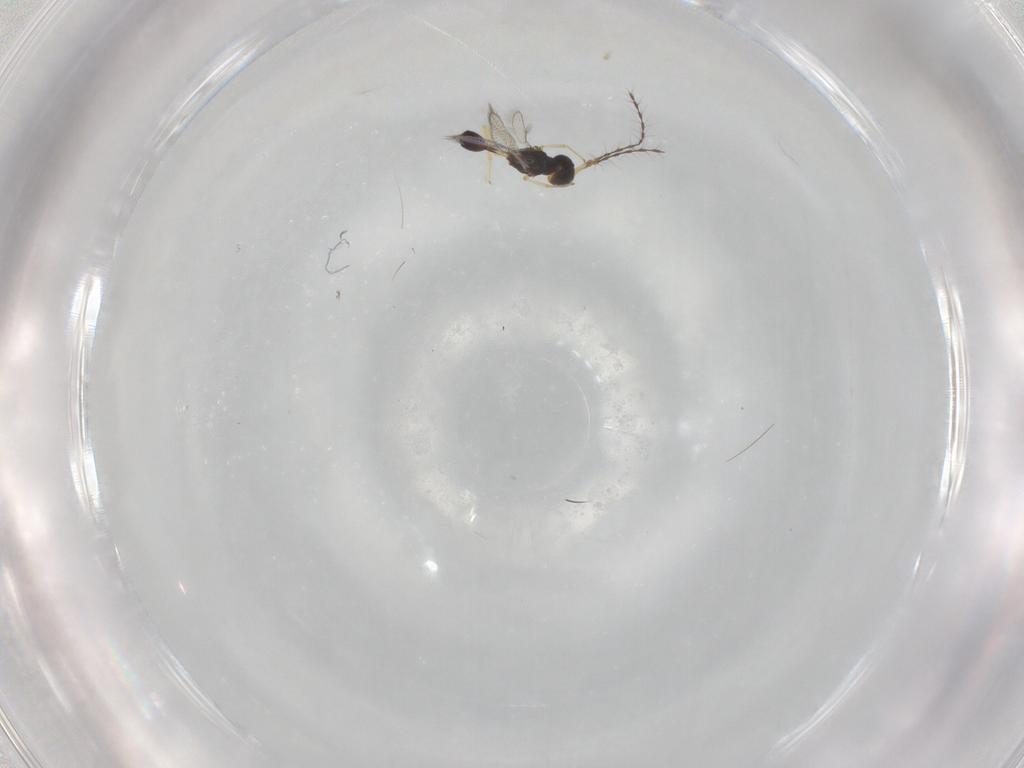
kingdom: Animalia
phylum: Arthropoda
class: Insecta
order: Hymenoptera
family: Diparidae
